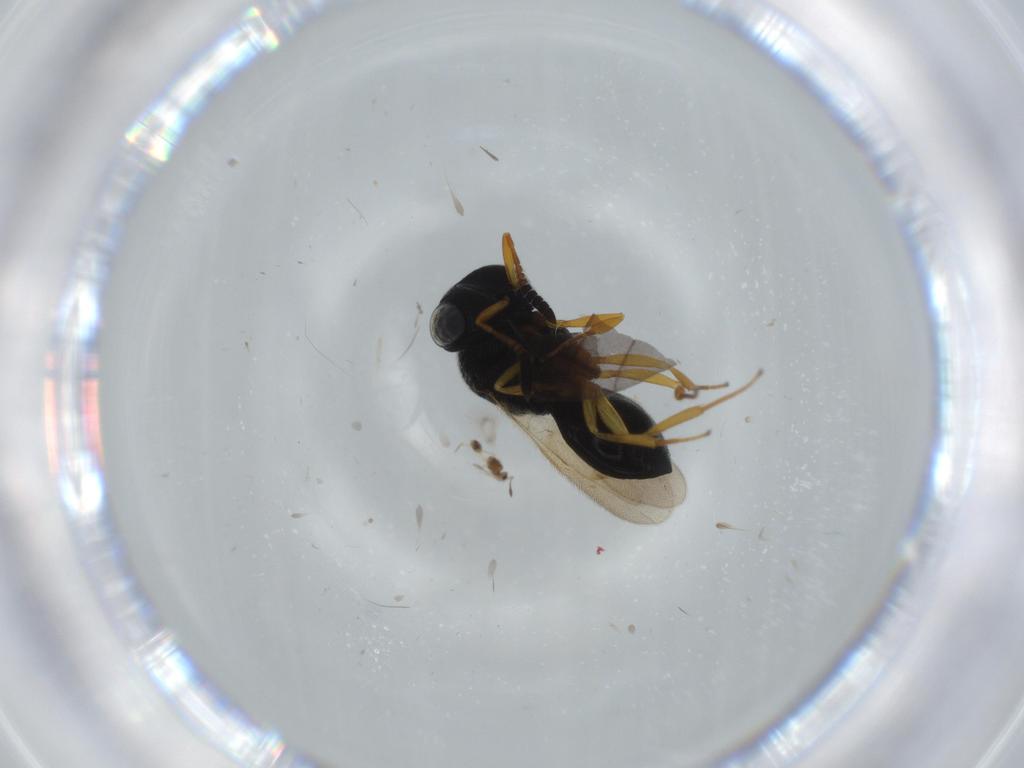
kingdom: Animalia
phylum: Arthropoda
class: Insecta
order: Hymenoptera
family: Scelionidae
